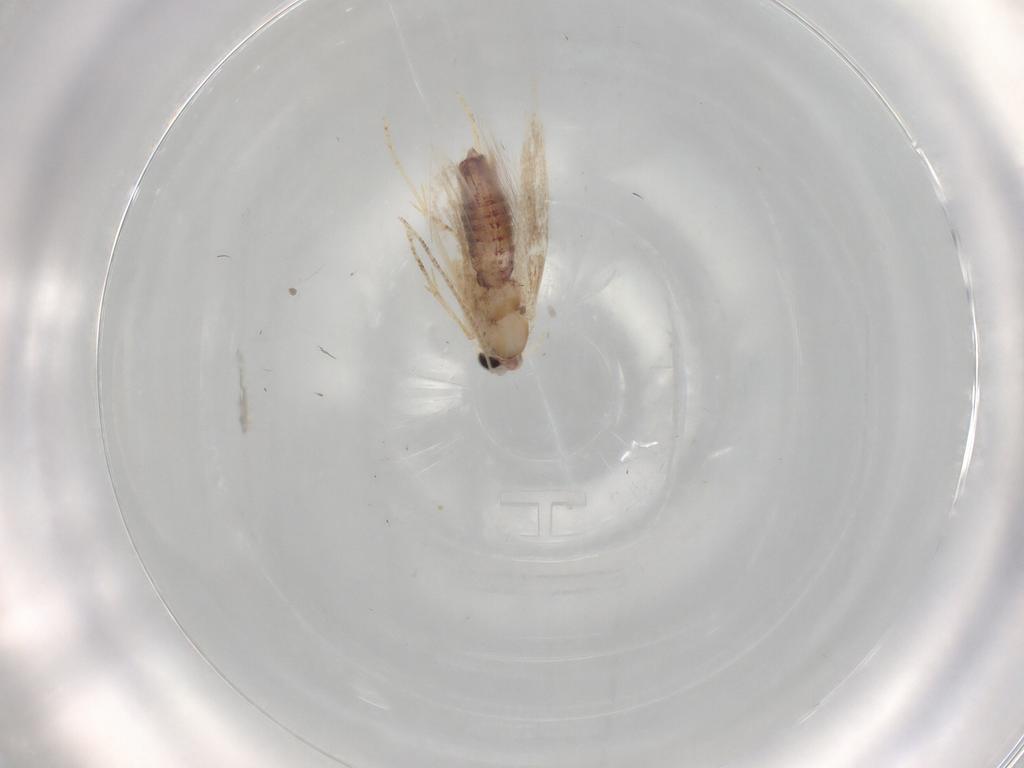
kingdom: Animalia
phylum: Arthropoda
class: Insecta
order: Lepidoptera
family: Bucculatricidae
